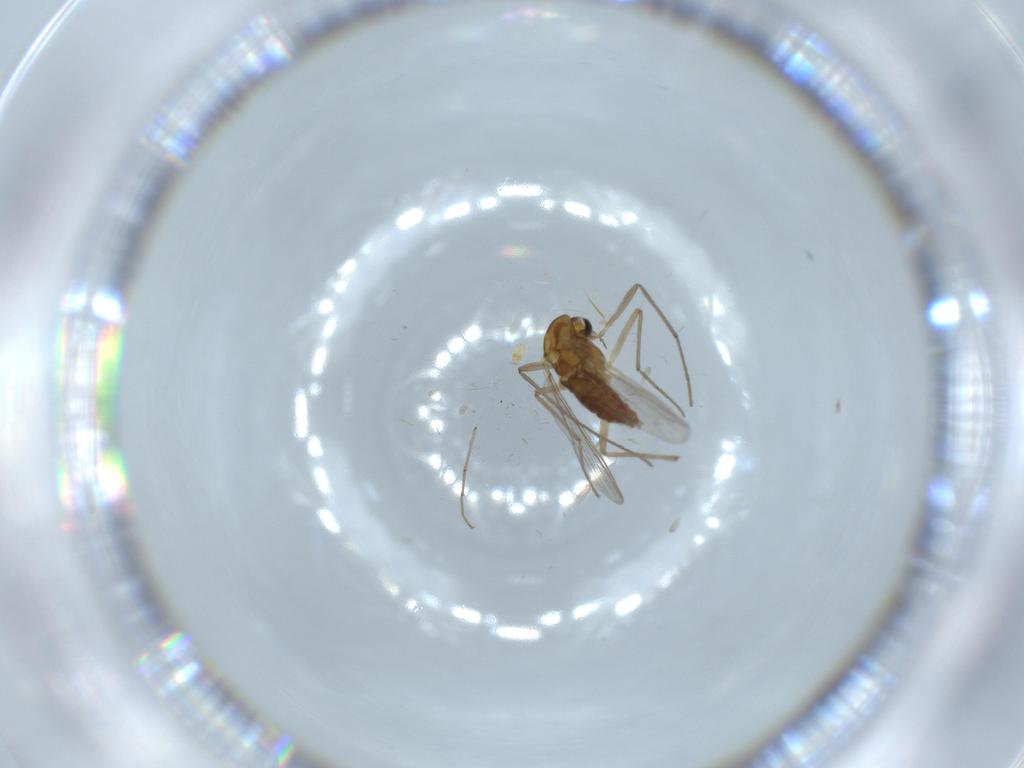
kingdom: Animalia
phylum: Arthropoda
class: Insecta
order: Diptera
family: Chironomidae
